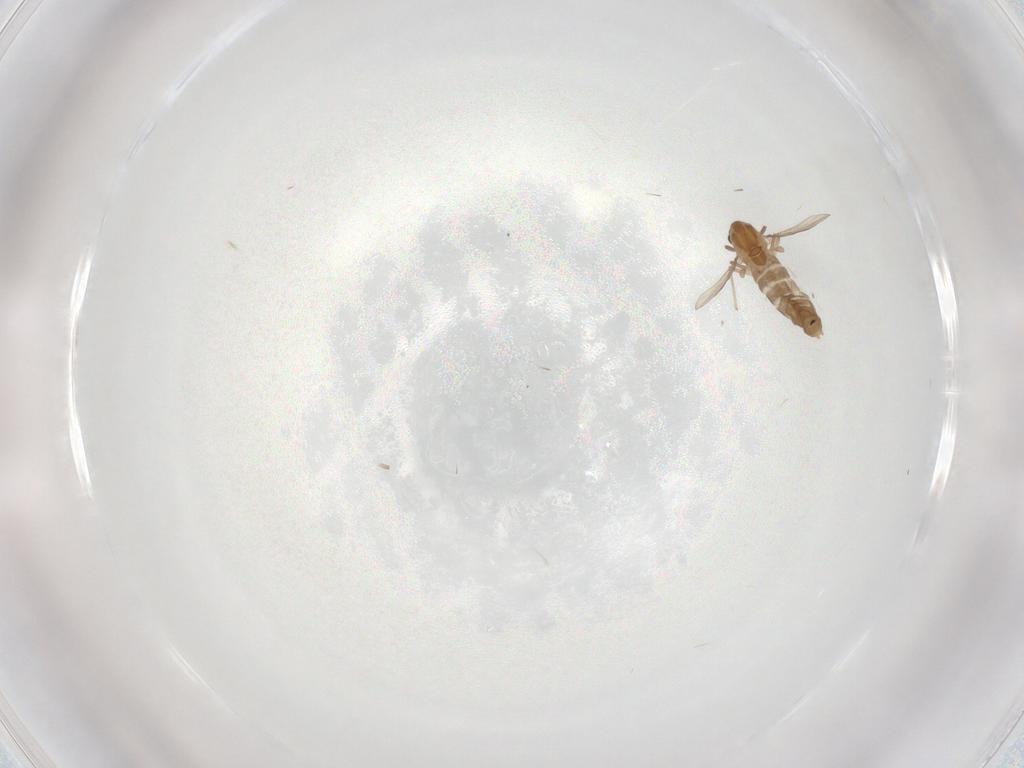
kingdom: Animalia
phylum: Arthropoda
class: Insecta
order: Diptera
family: Chironomidae
